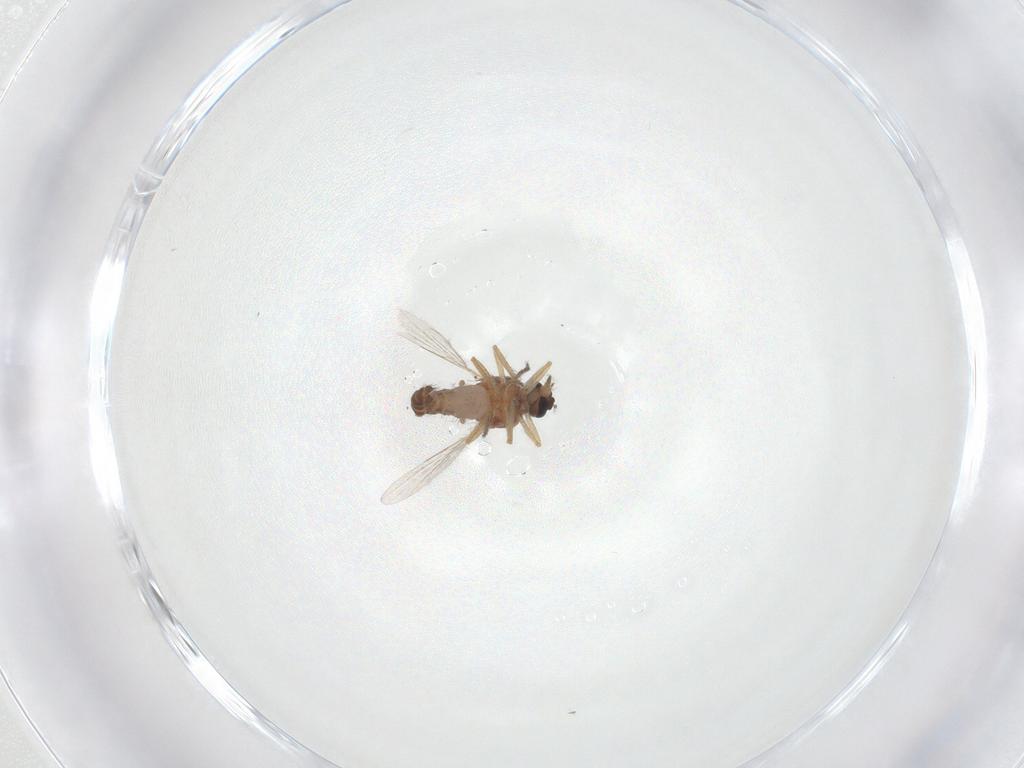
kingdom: Animalia
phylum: Arthropoda
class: Insecta
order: Diptera
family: Ceratopogonidae
